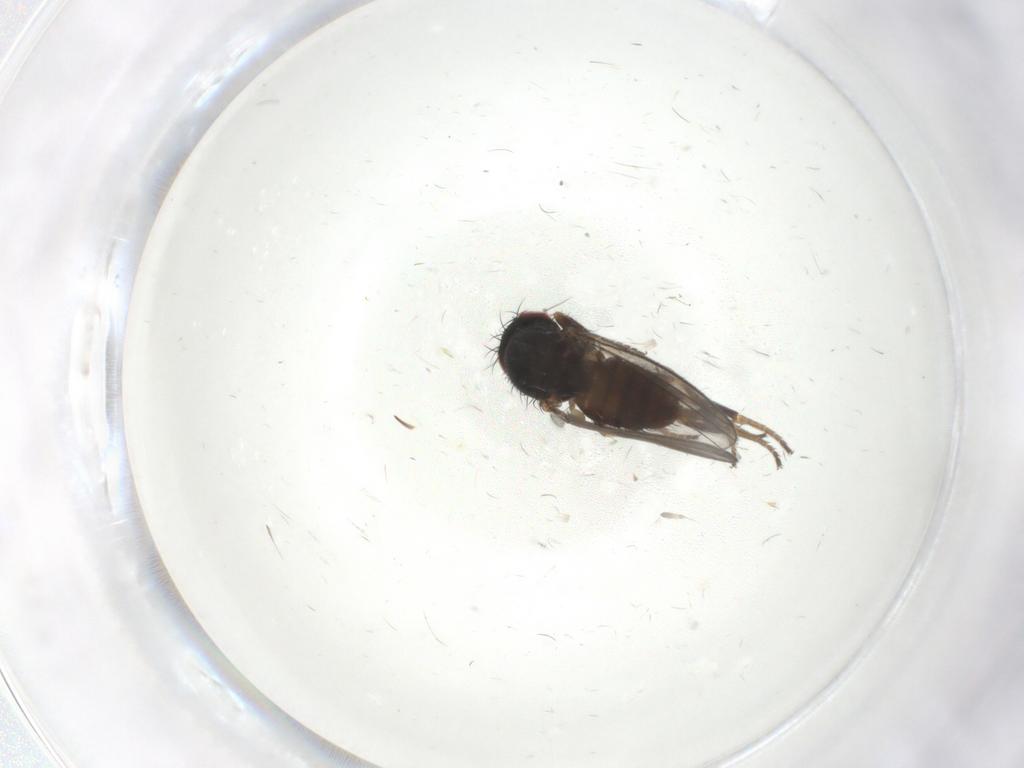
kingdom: Animalia
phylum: Arthropoda
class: Insecta
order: Diptera
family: Milichiidae
